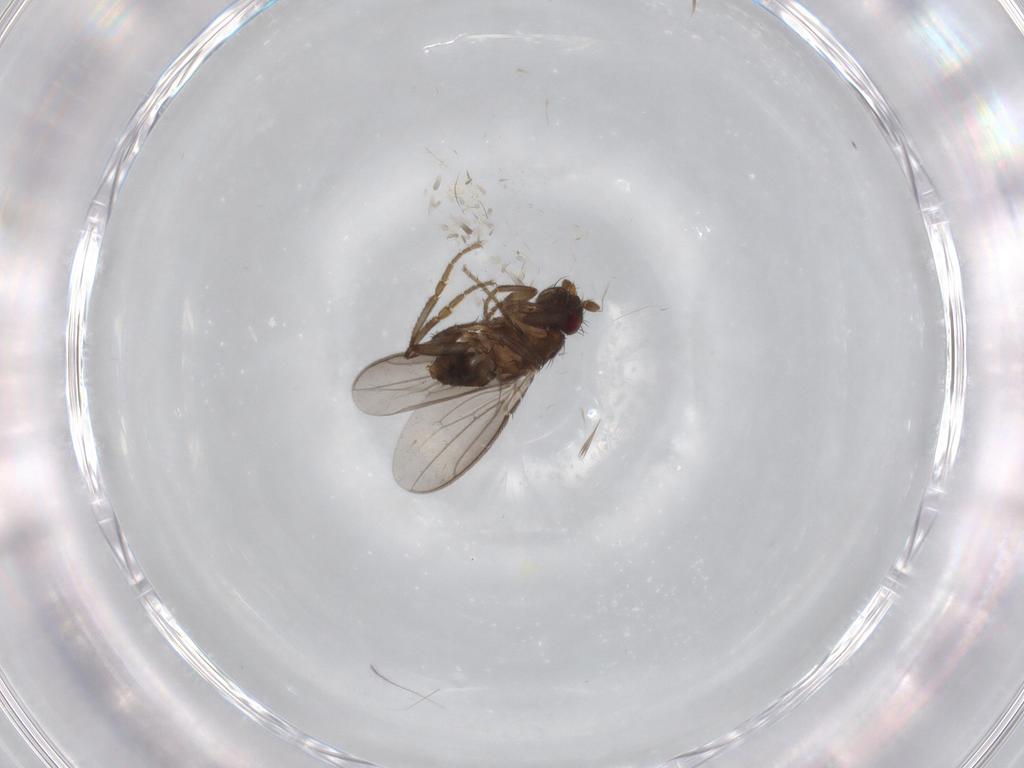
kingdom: Animalia
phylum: Arthropoda
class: Insecta
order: Diptera
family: Sphaeroceridae
